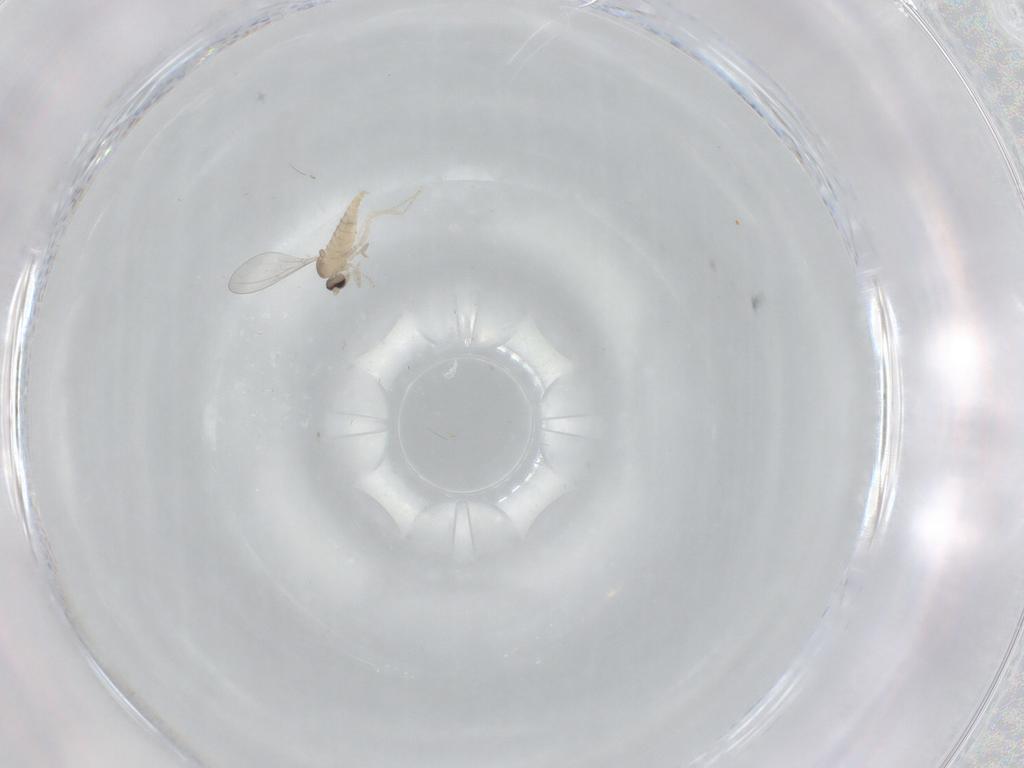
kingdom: Animalia
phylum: Arthropoda
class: Insecta
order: Diptera
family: Cecidomyiidae
